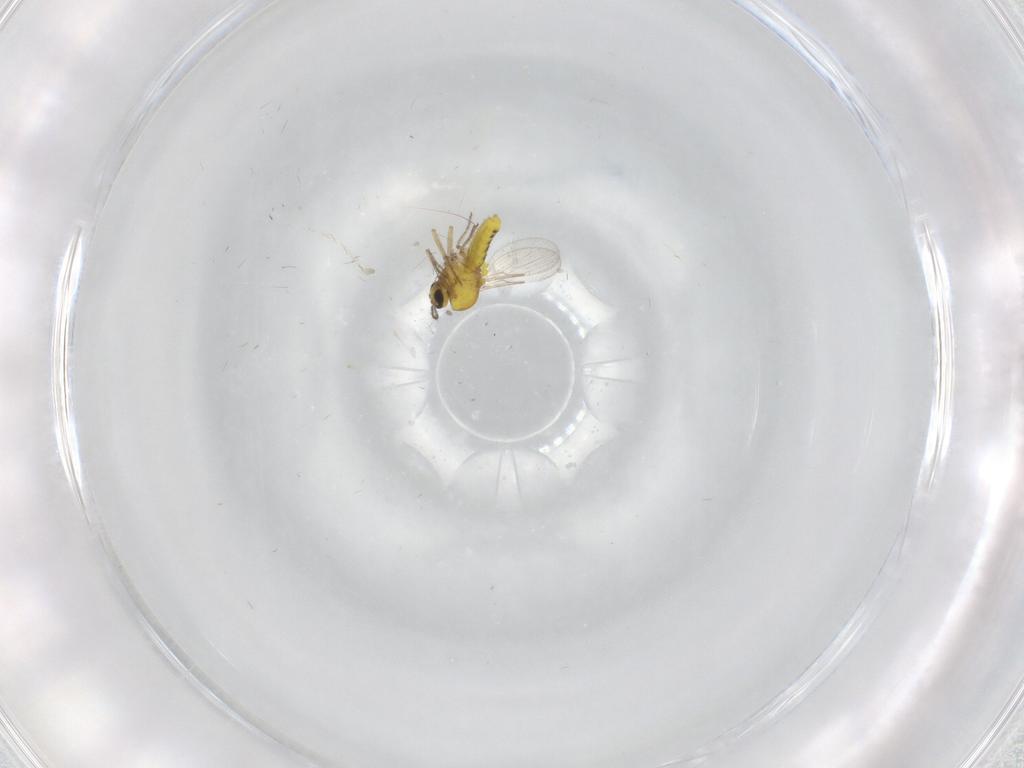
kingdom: Animalia
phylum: Arthropoda
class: Insecta
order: Diptera
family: Ceratopogonidae
